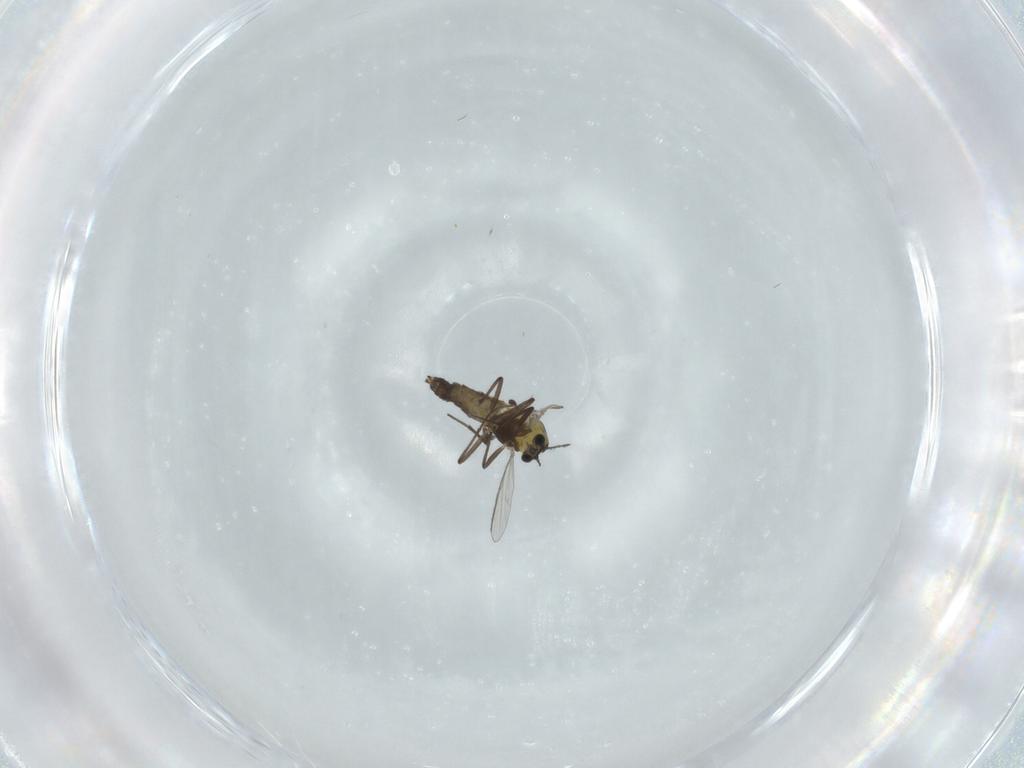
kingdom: Animalia
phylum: Arthropoda
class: Insecta
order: Diptera
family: Chironomidae
